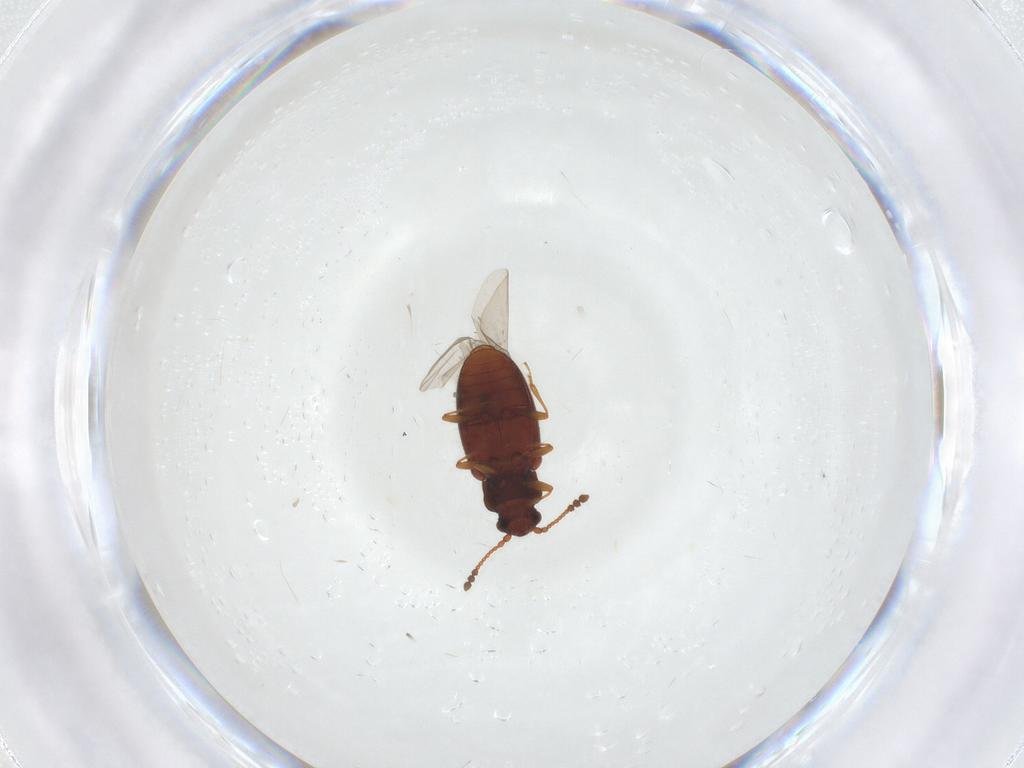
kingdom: Animalia
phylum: Arthropoda
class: Insecta
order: Coleoptera
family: Cryptophagidae
